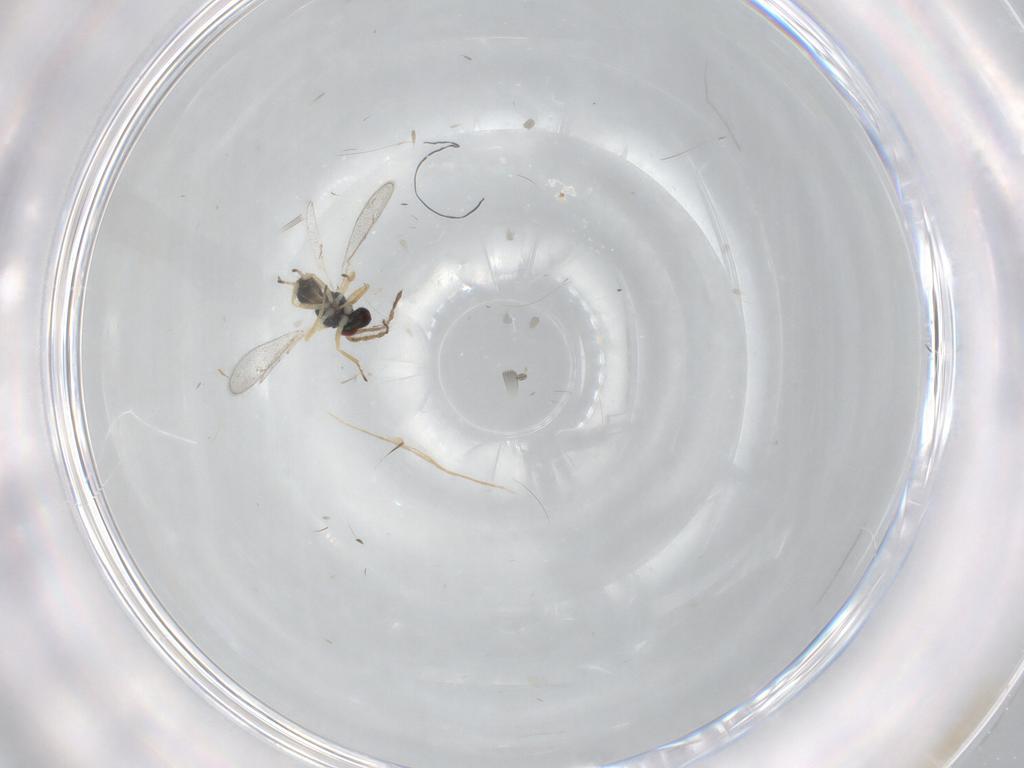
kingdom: Animalia
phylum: Arthropoda
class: Insecta
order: Hymenoptera
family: Eulophidae
